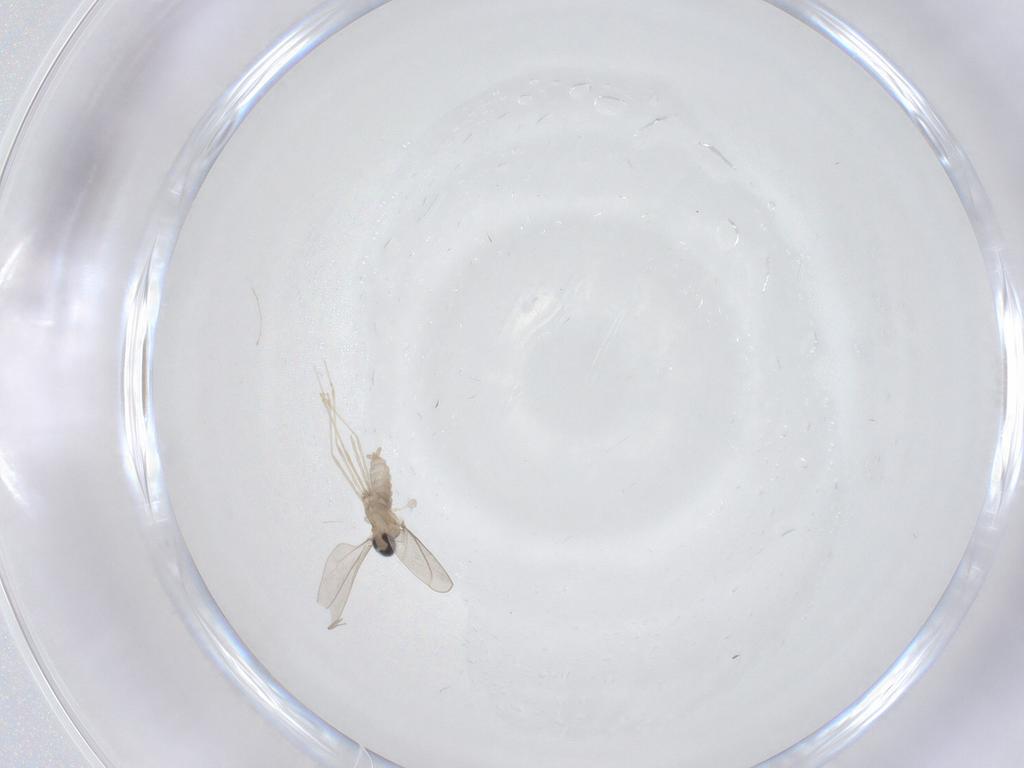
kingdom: Animalia
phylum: Arthropoda
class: Insecta
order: Diptera
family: Cecidomyiidae
